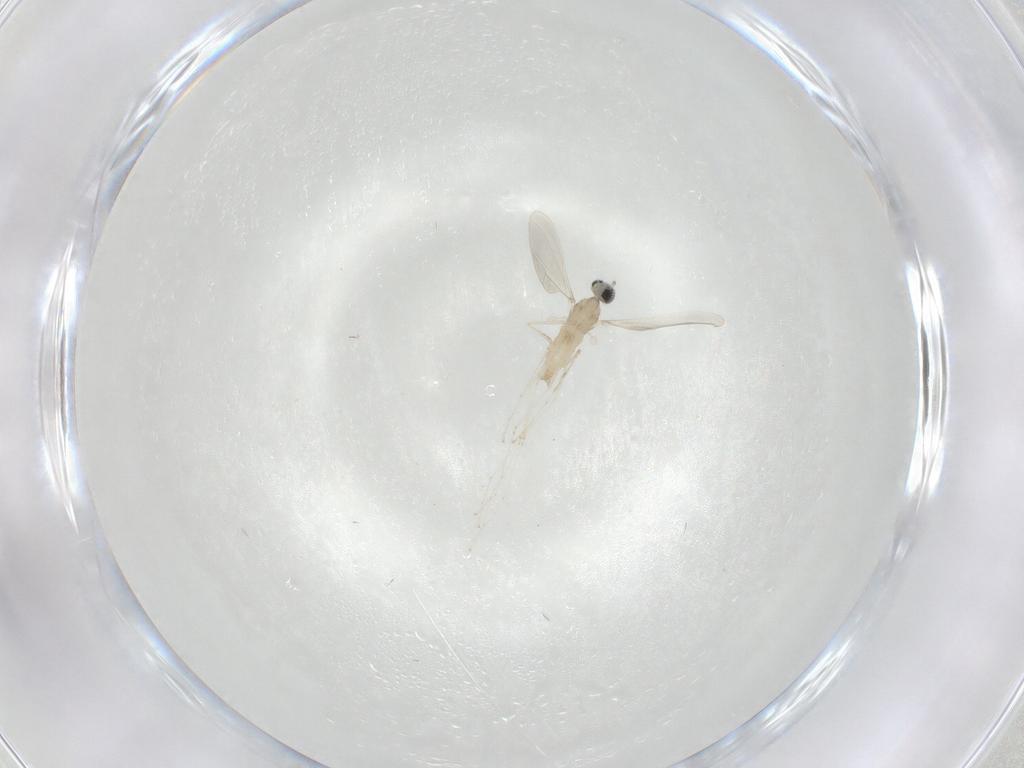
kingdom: Animalia
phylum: Arthropoda
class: Insecta
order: Diptera
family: Cecidomyiidae
